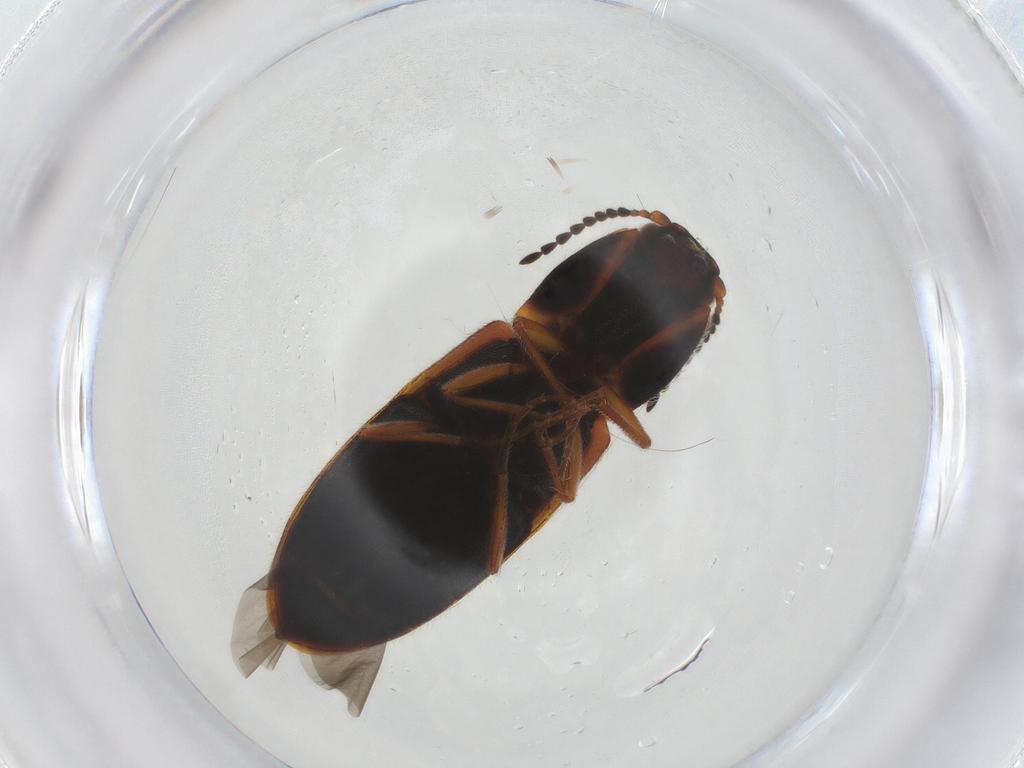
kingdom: Animalia
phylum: Arthropoda
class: Insecta
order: Coleoptera
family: Elateridae
